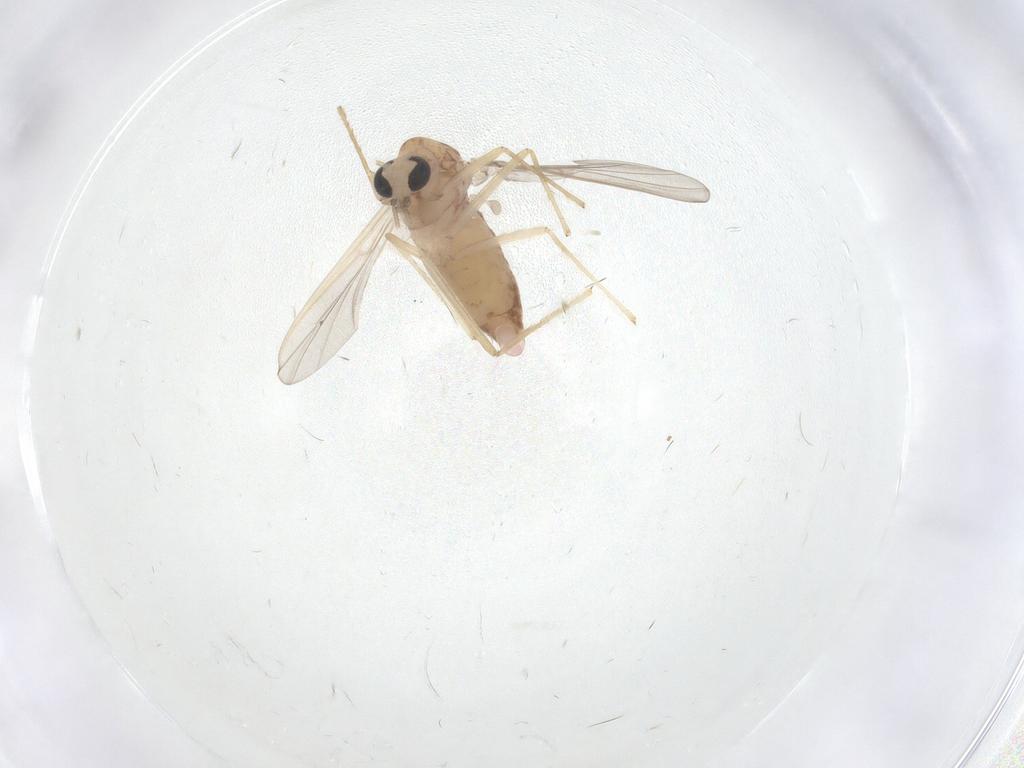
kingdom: Animalia
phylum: Arthropoda
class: Insecta
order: Diptera
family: Chironomidae
